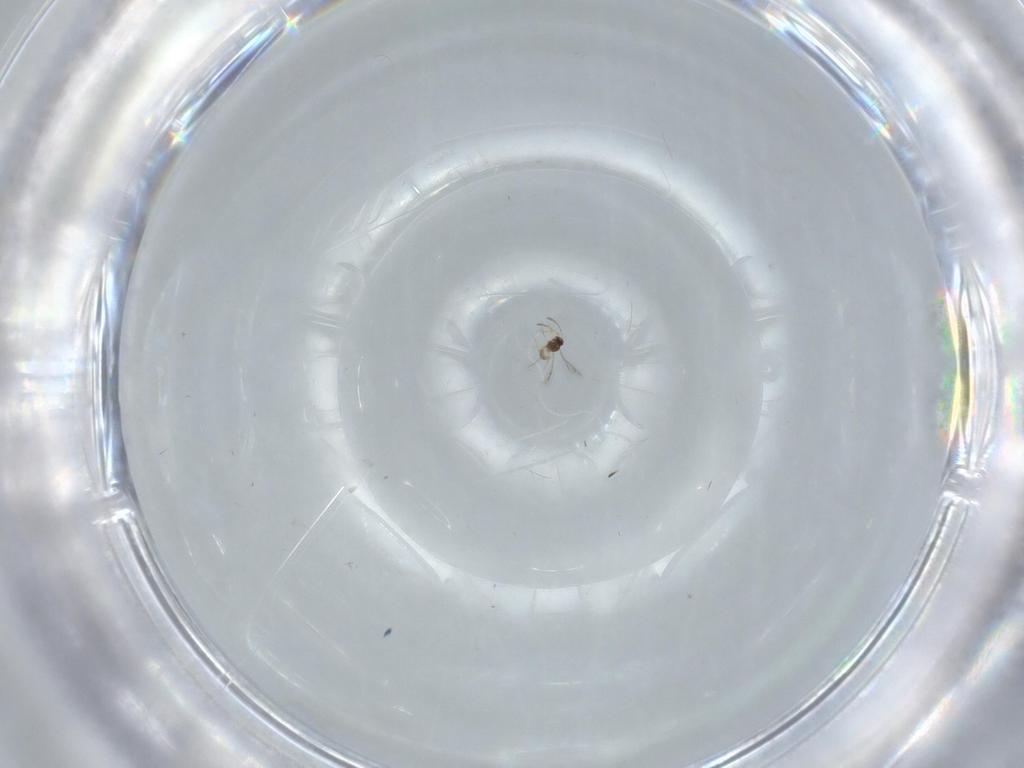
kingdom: Animalia
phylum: Arthropoda
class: Insecta
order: Hymenoptera
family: Mymaridae
